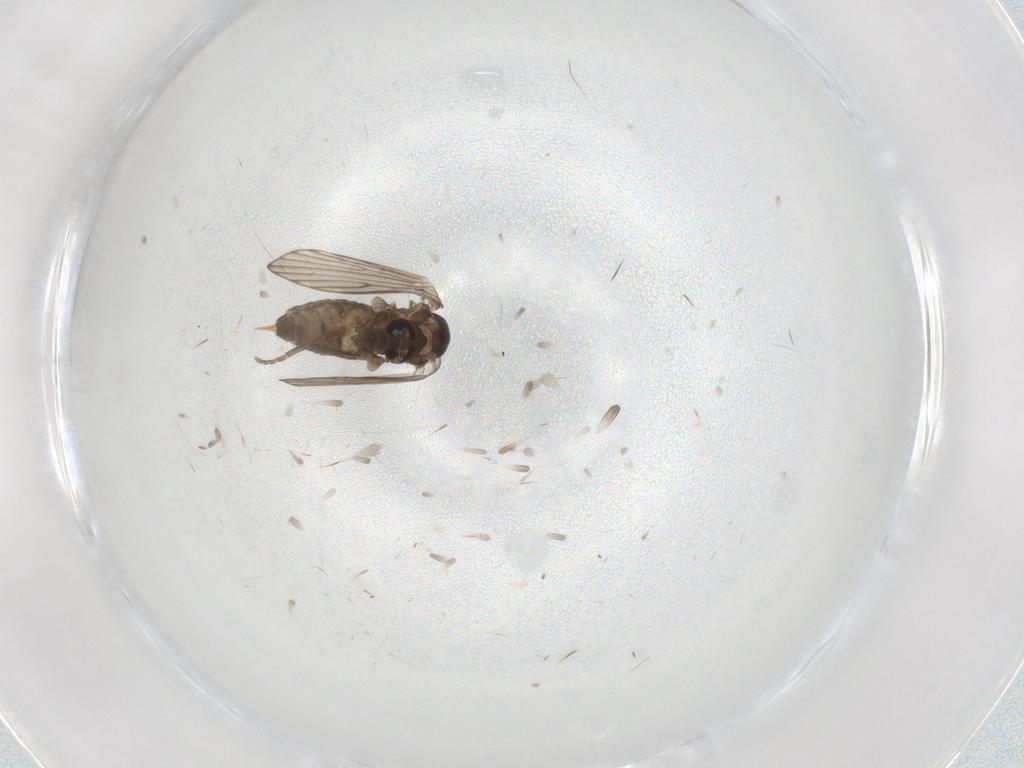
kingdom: Animalia
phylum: Arthropoda
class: Insecta
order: Diptera
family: Psychodidae
